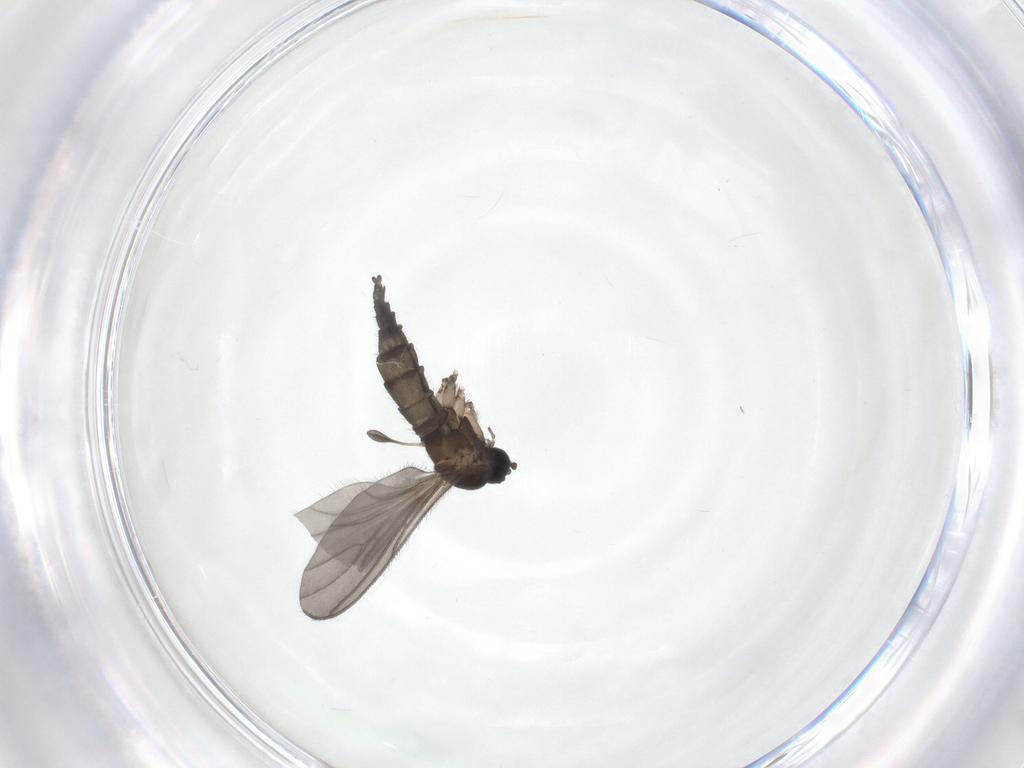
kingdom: Animalia
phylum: Arthropoda
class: Insecta
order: Diptera
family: Sciaridae
